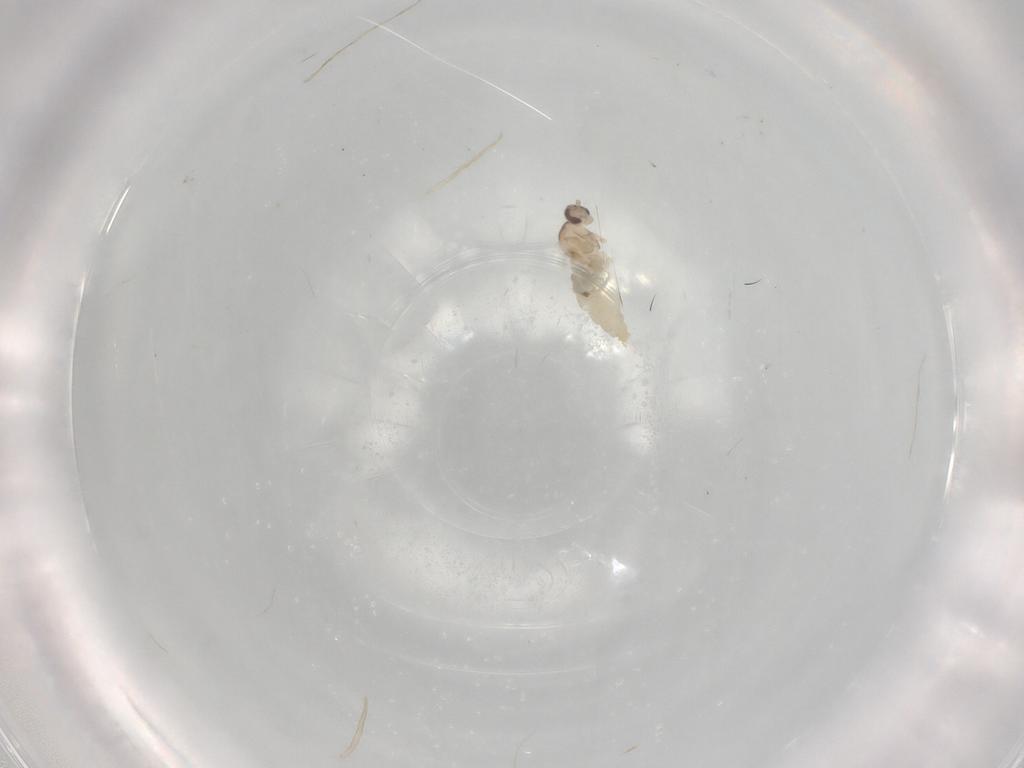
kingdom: Animalia
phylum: Arthropoda
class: Insecta
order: Diptera
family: Cecidomyiidae
